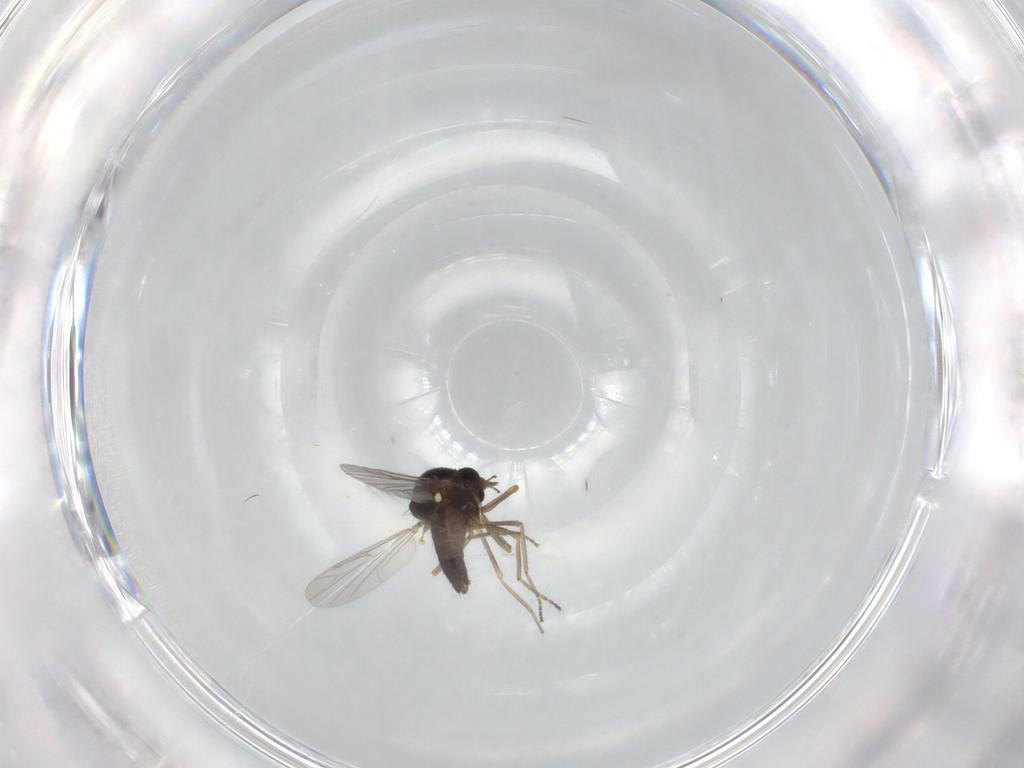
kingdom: Animalia
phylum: Arthropoda
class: Insecta
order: Diptera
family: Ceratopogonidae
